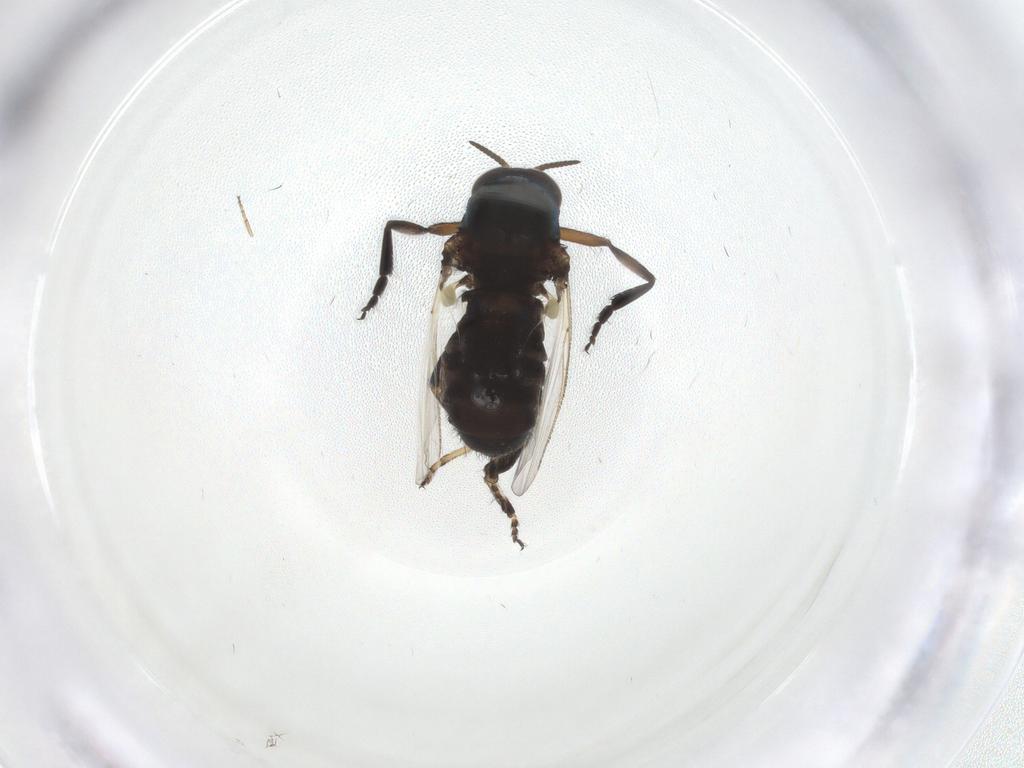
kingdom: Animalia
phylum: Arthropoda
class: Insecta
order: Diptera
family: Simuliidae
